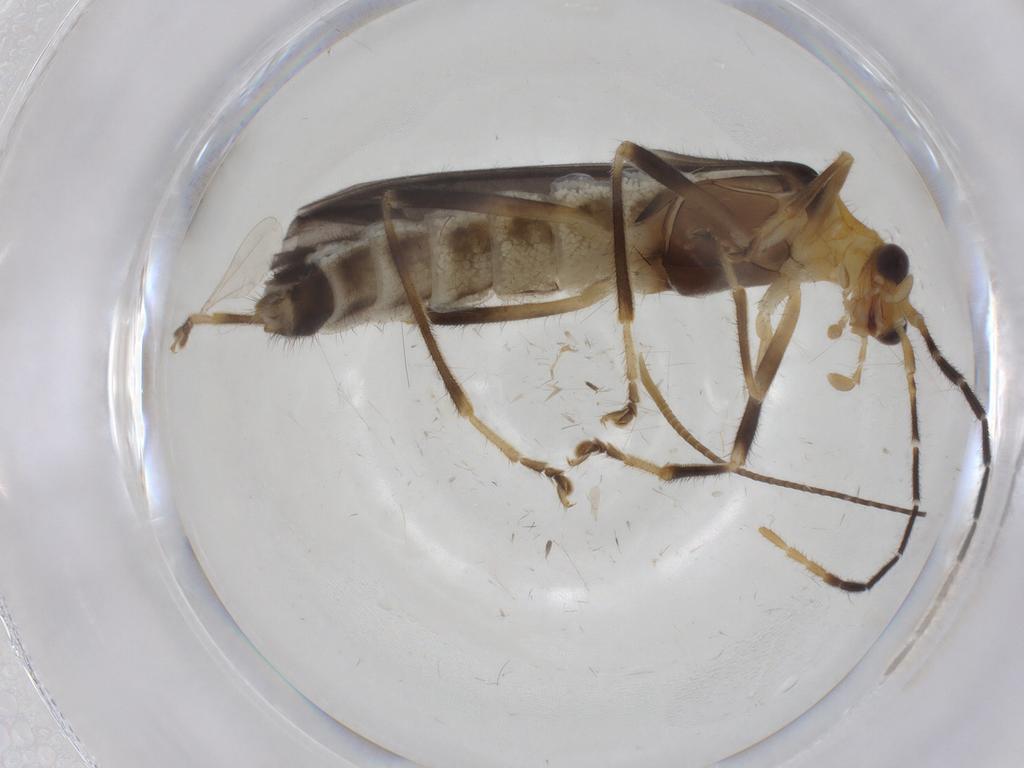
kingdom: Animalia
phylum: Arthropoda
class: Insecta
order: Coleoptera
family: Cantharidae
